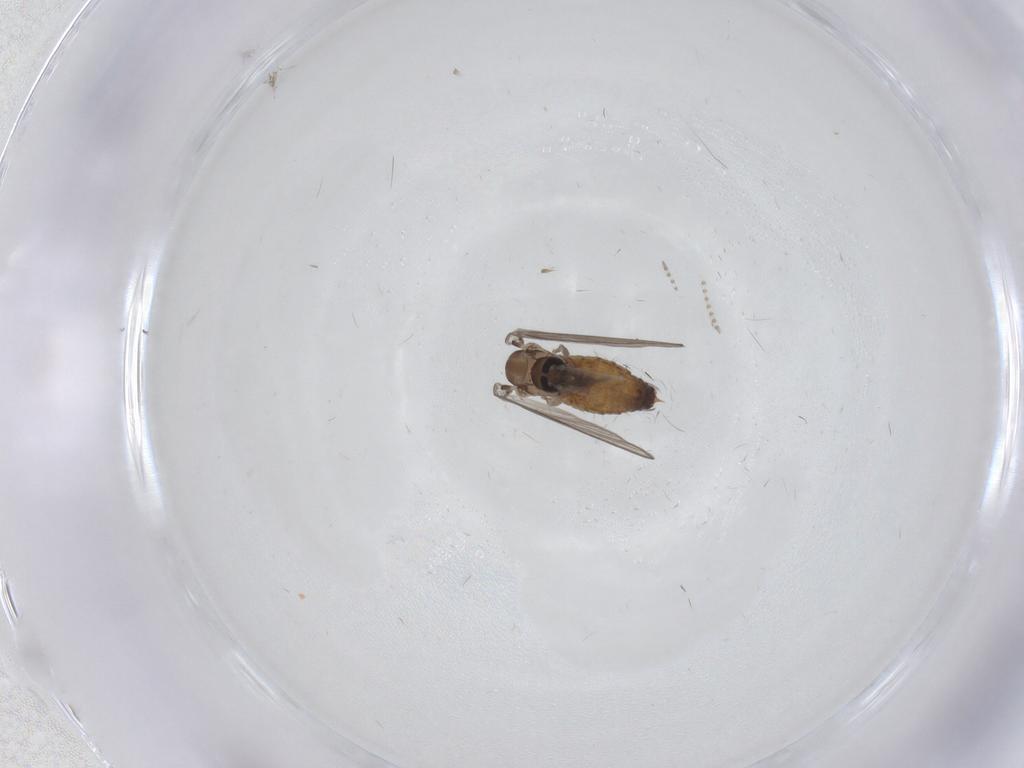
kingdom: Animalia
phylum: Arthropoda
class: Insecta
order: Diptera
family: Psychodidae
